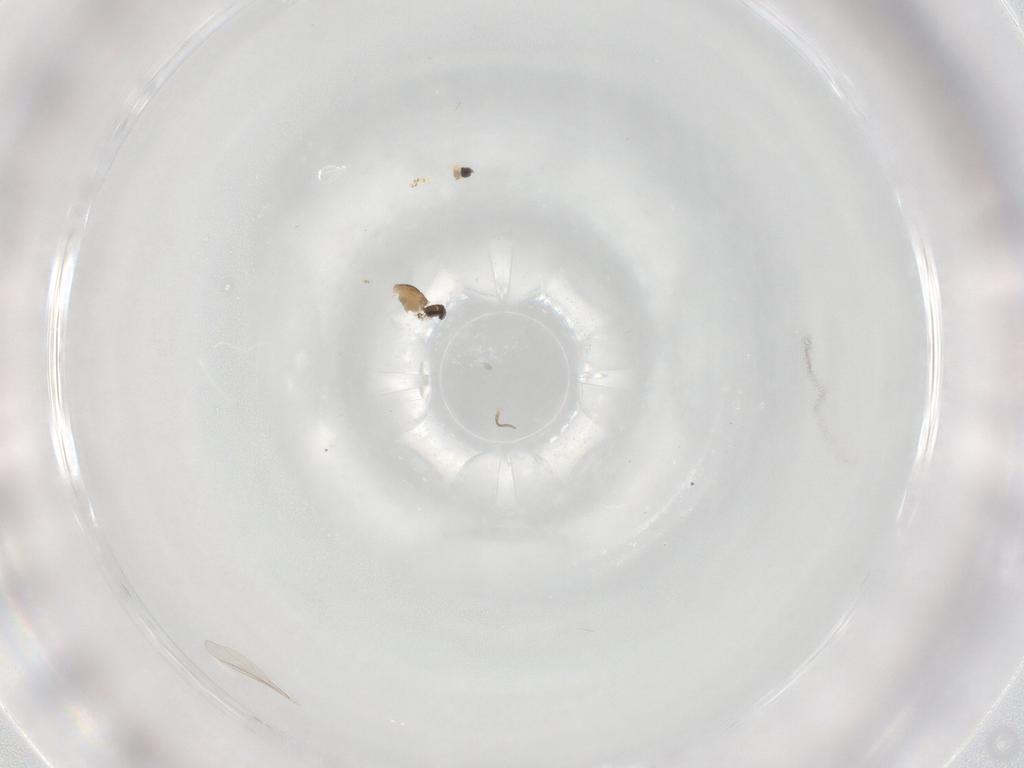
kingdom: Animalia
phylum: Arthropoda
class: Insecta
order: Diptera
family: Cecidomyiidae
